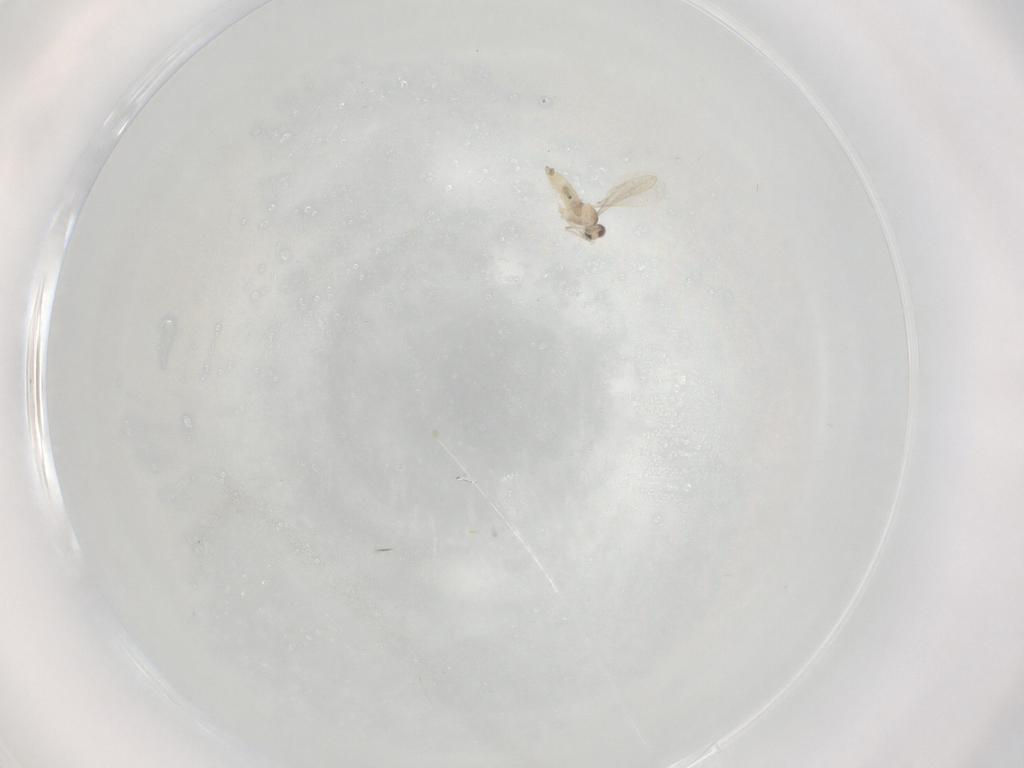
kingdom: Animalia
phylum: Arthropoda
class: Insecta
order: Diptera
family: Cecidomyiidae
